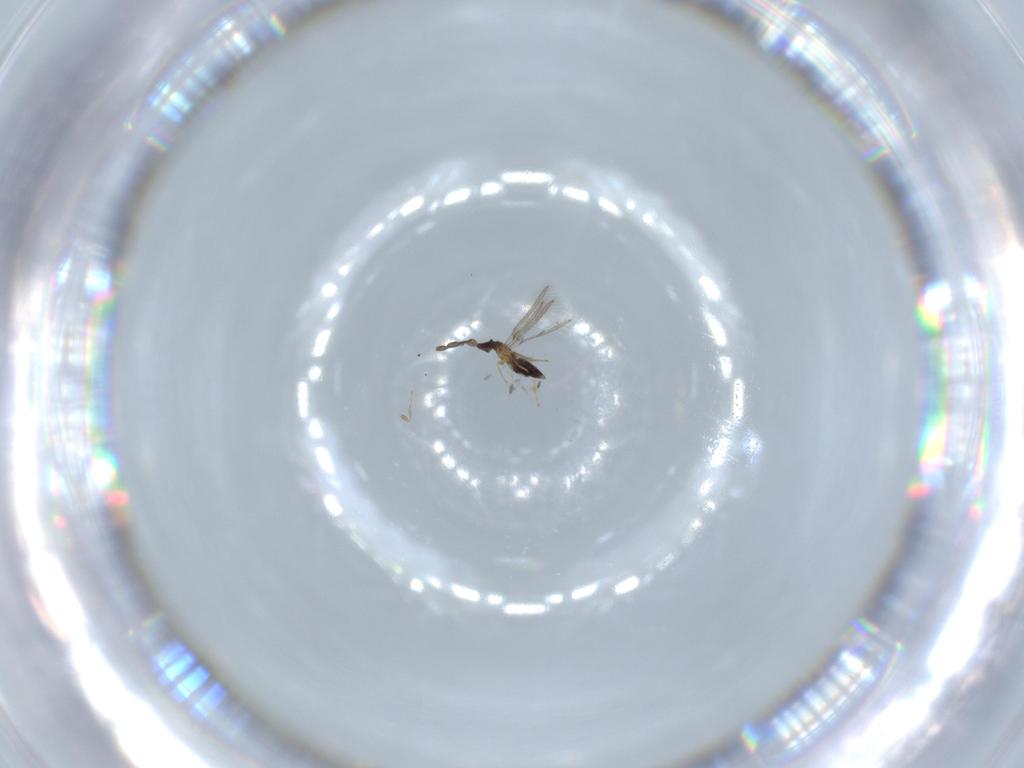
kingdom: Animalia
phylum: Arthropoda
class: Insecta
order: Hymenoptera
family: Mymaridae
